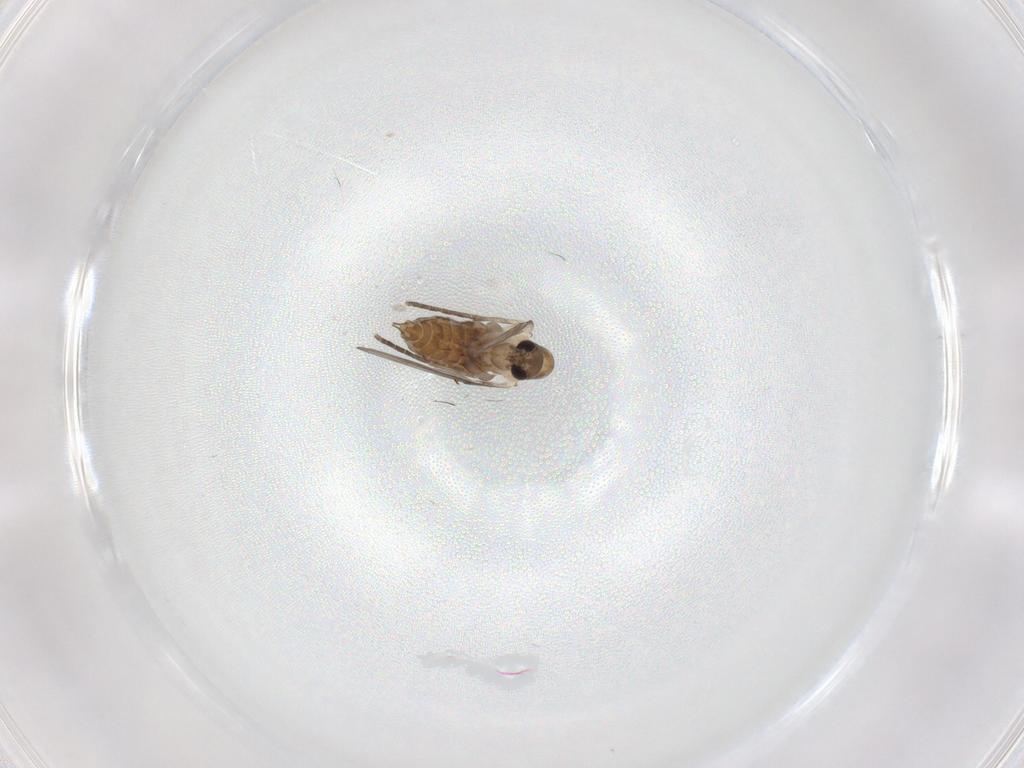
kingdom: Animalia
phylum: Arthropoda
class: Insecta
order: Diptera
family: Psychodidae
